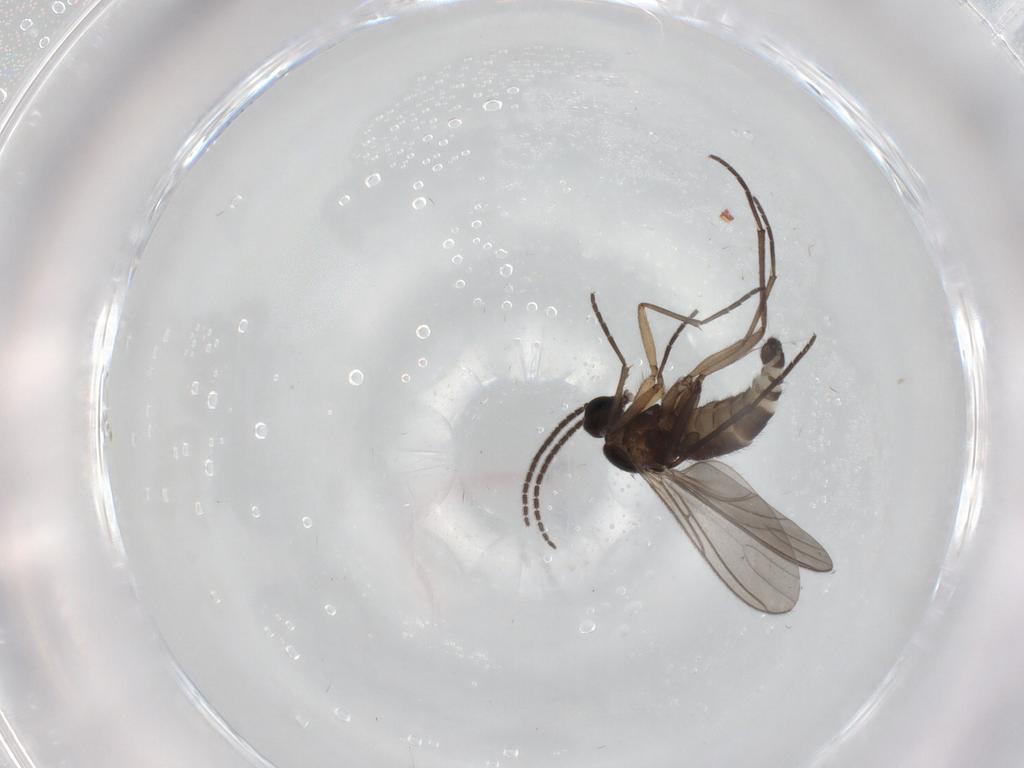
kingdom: Animalia
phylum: Arthropoda
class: Insecta
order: Diptera
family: Sciaridae
